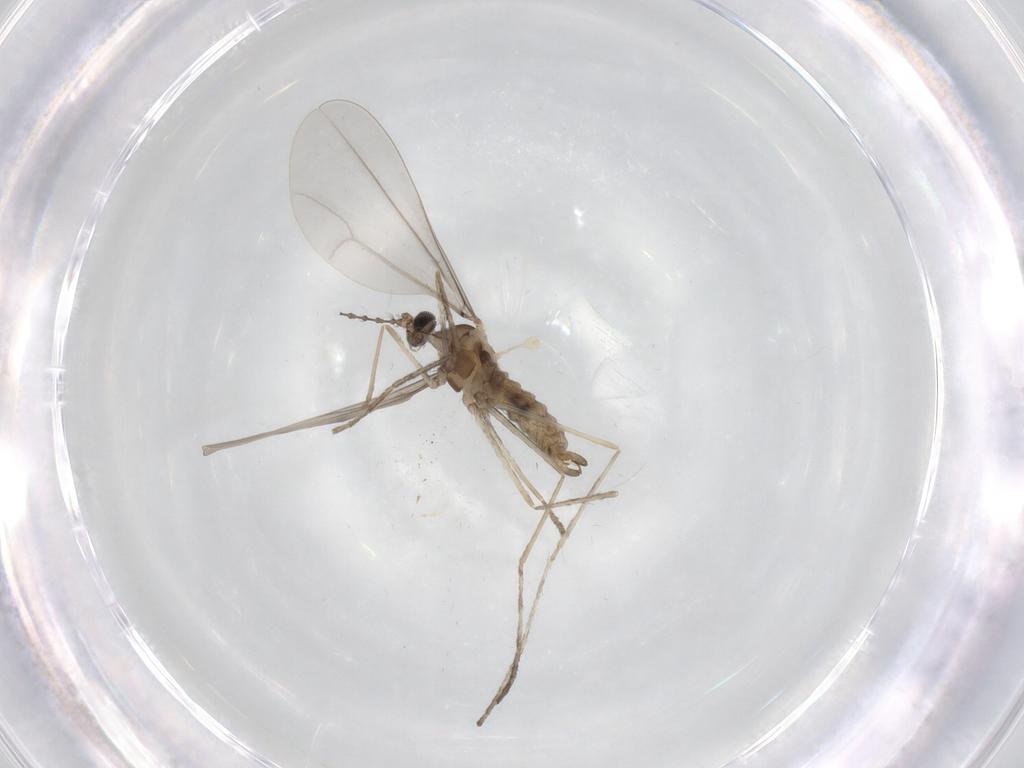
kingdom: Animalia
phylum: Arthropoda
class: Insecta
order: Diptera
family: Cecidomyiidae
